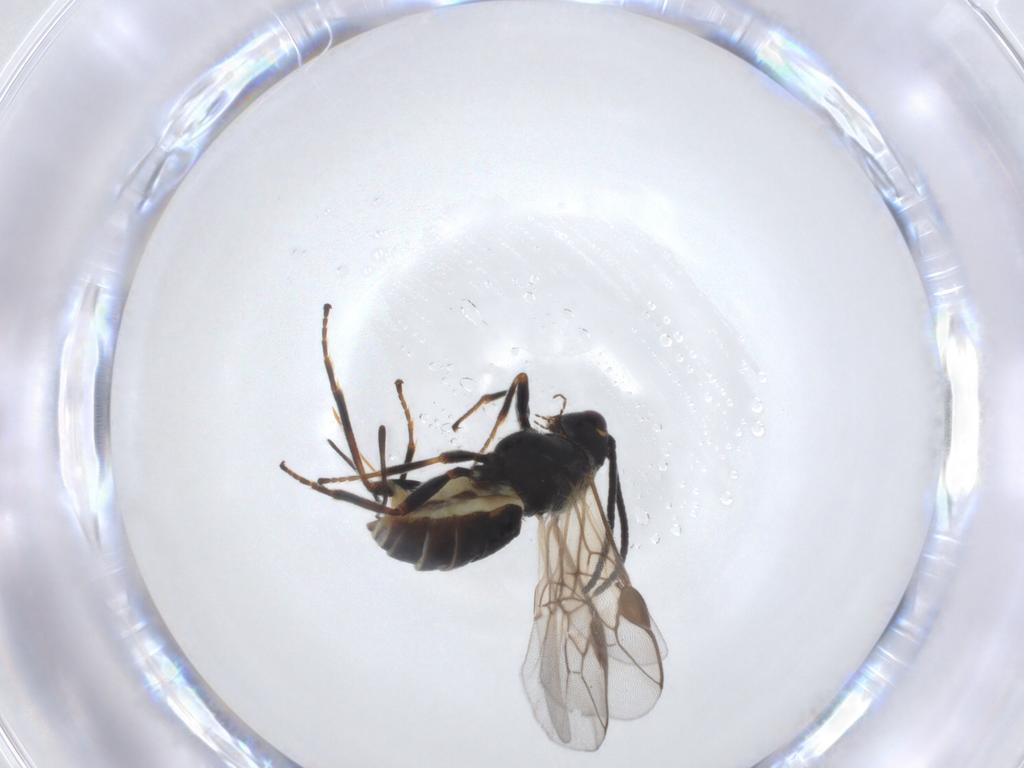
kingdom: Animalia
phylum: Arthropoda
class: Insecta
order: Hymenoptera
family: Braconidae
